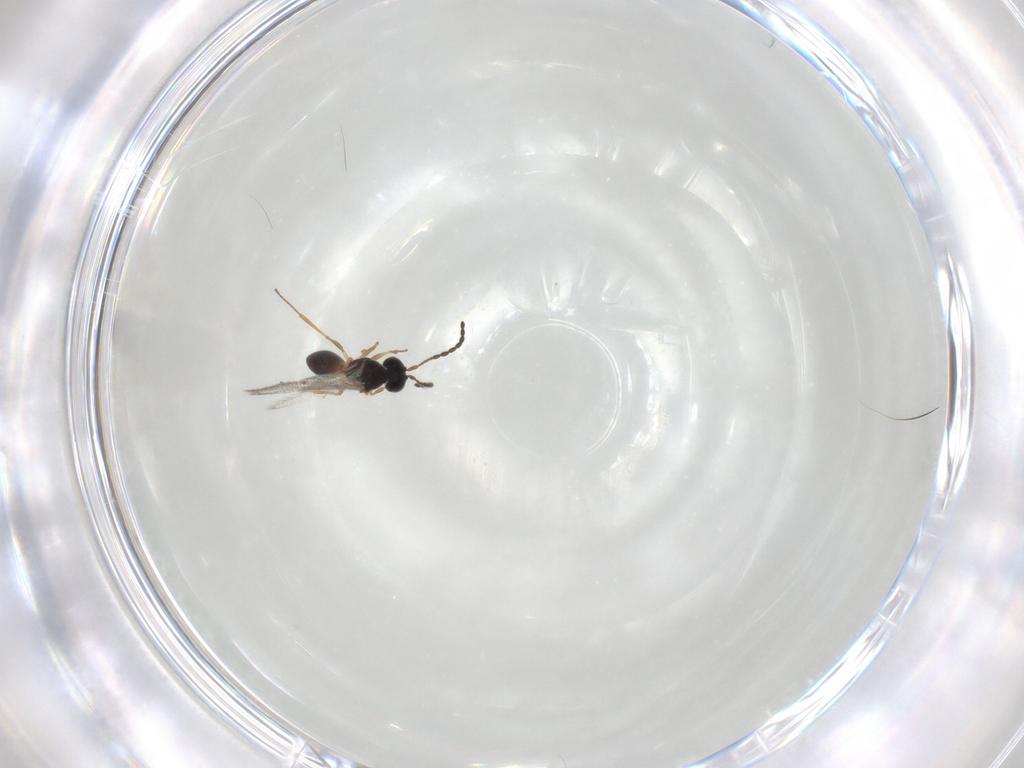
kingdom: Animalia
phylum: Arthropoda
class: Insecta
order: Hymenoptera
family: Figitidae
